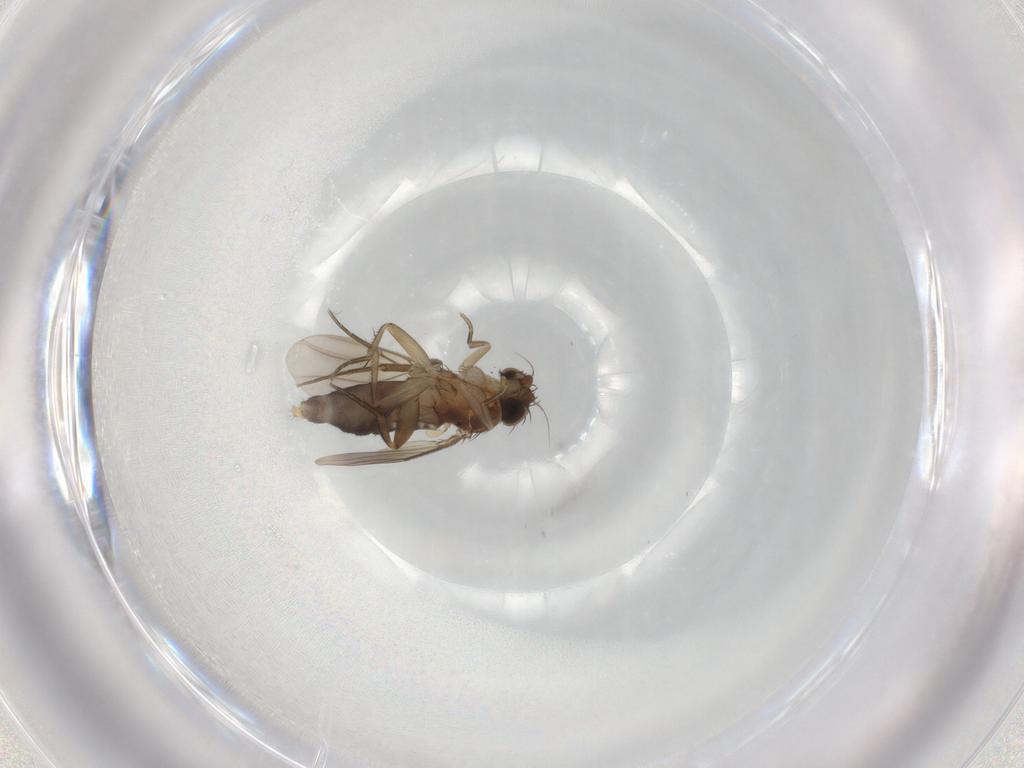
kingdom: Animalia
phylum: Arthropoda
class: Insecta
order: Diptera
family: Phoridae
